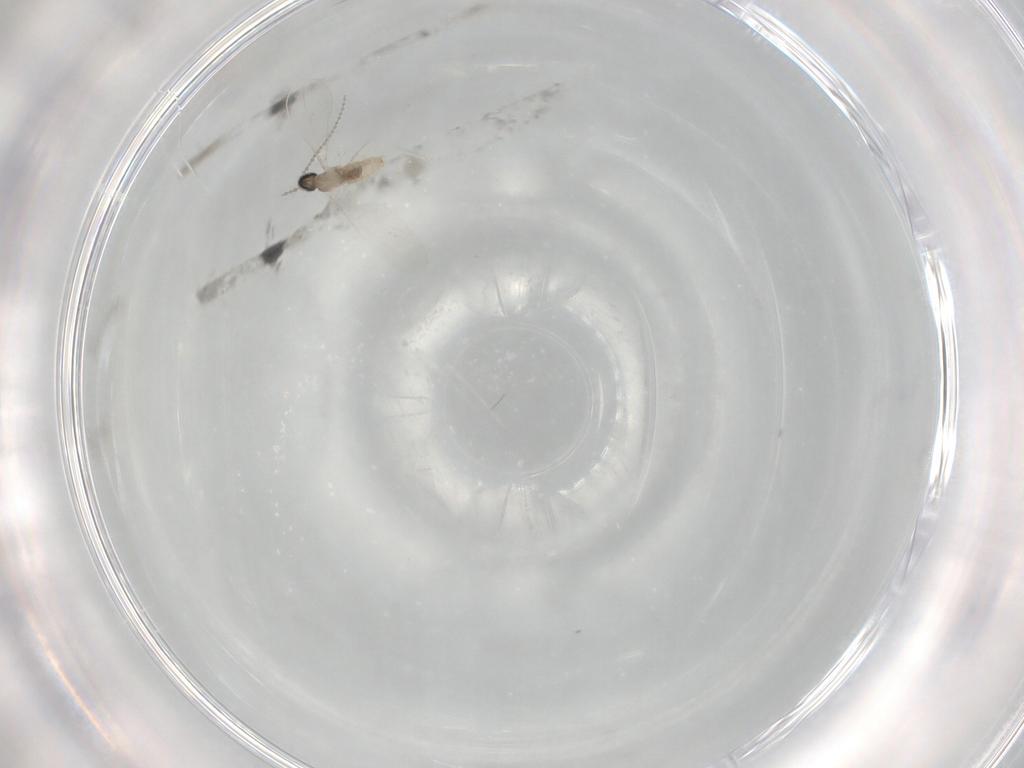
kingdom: Animalia
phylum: Arthropoda
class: Insecta
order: Diptera
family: Cecidomyiidae
